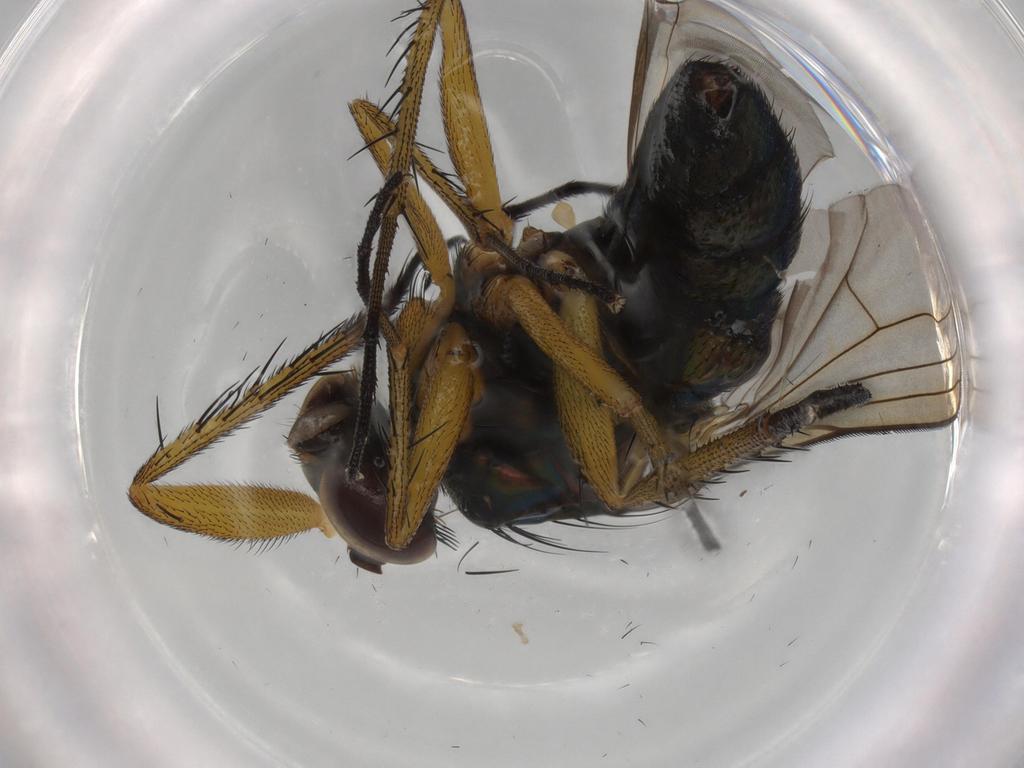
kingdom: Animalia
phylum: Arthropoda
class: Insecta
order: Diptera
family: Dolichopodidae
